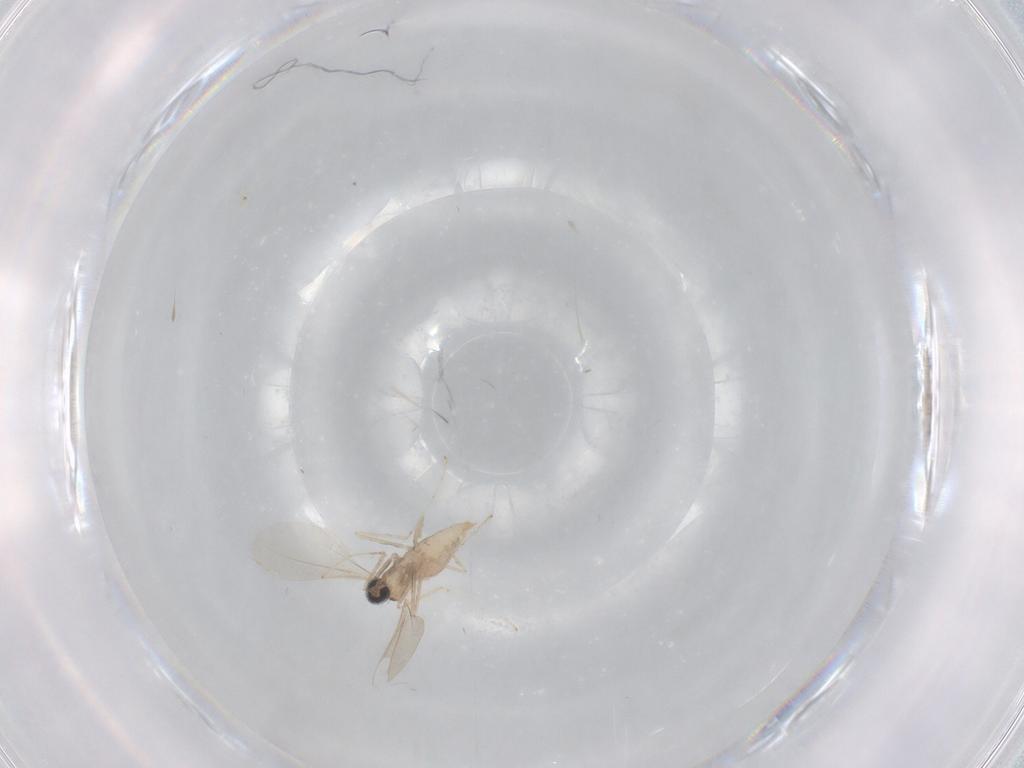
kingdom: Animalia
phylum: Arthropoda
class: Insecta
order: Diptera
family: Cecidomyiidae
